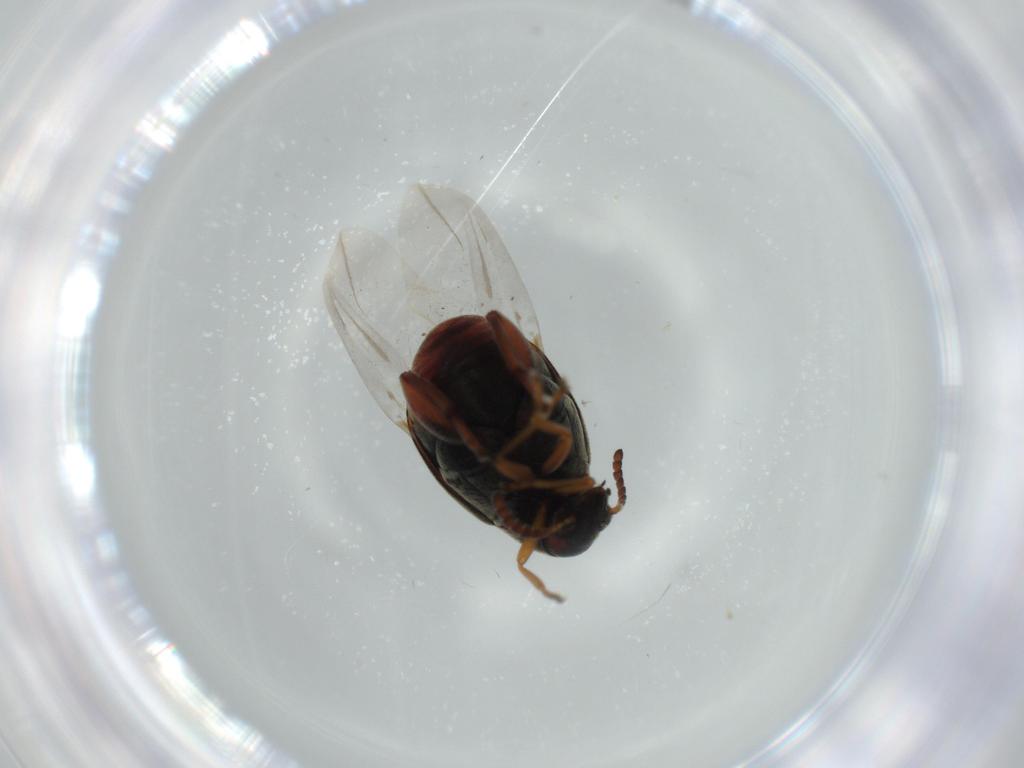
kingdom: Animalia
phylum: Arthropoda
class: Insecta
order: Coleoptera
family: Chrysomelidae
